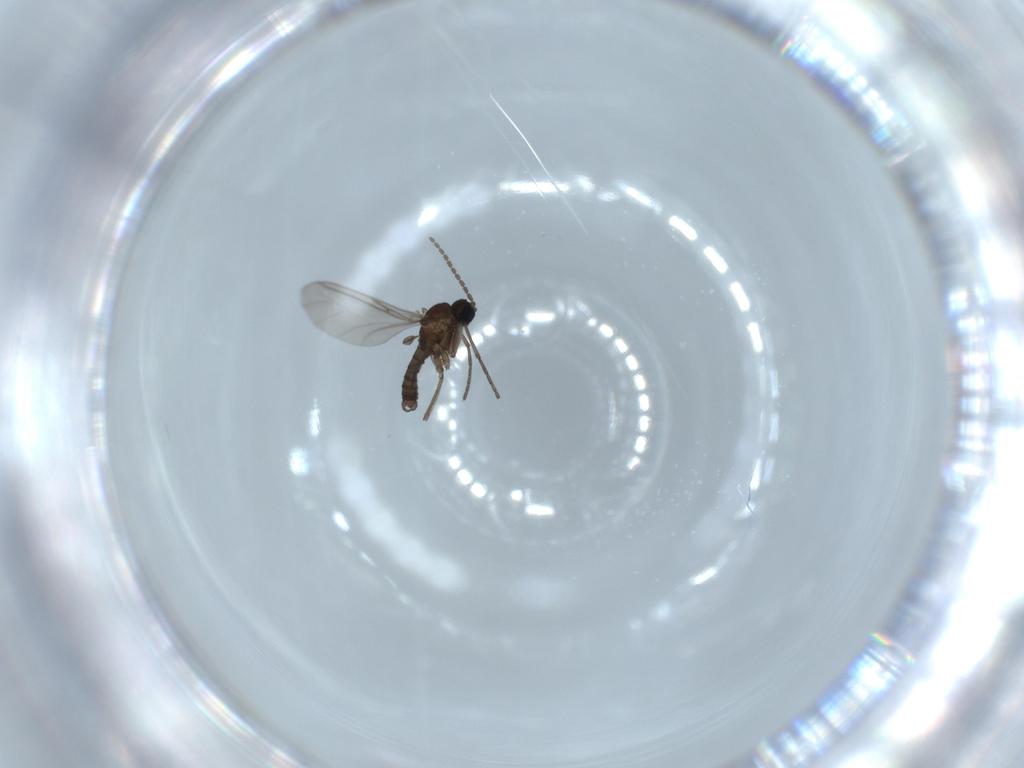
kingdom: Animalia
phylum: Arthropoda
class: Insecta
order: Diptera
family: Sciaridae
